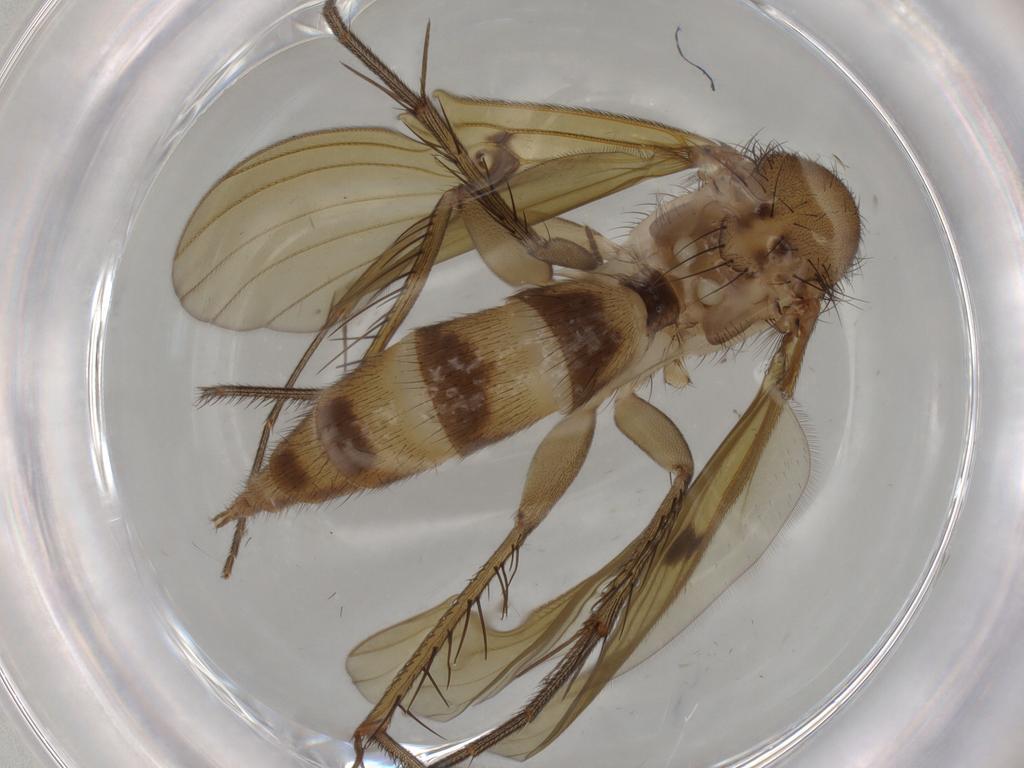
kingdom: Animalia
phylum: Arthropoda
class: Insecta
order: Diptera
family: Mycetophilidae
